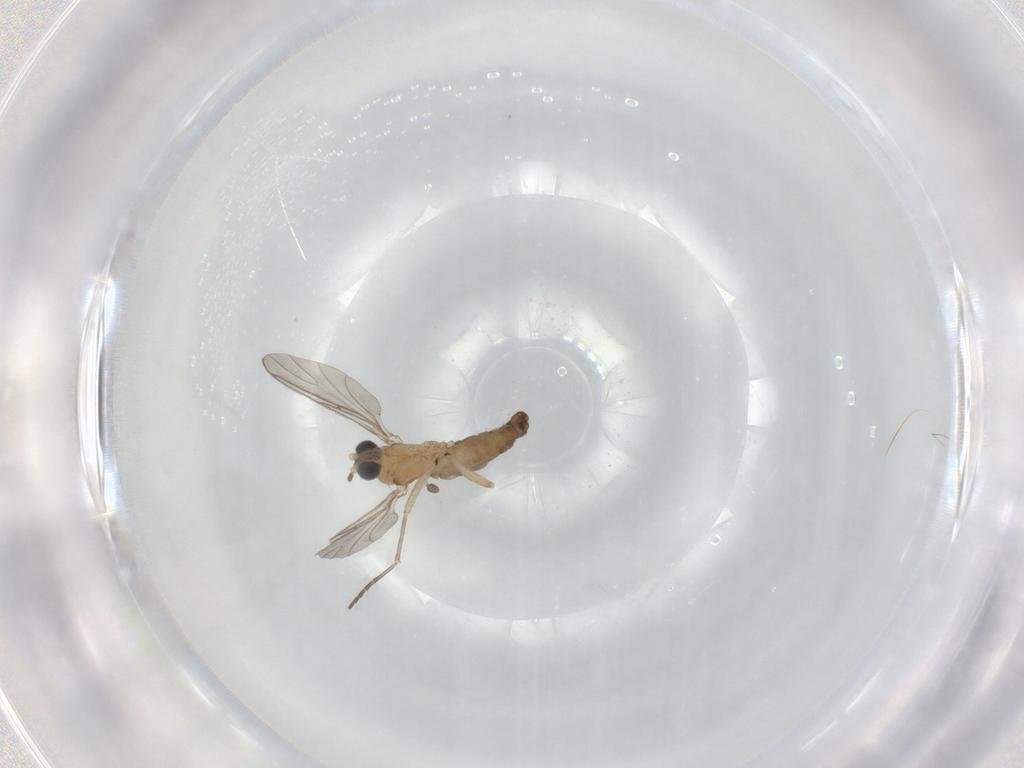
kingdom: Animalia
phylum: Arthropoda
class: Insecta
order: Diptera
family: Sciaridae
